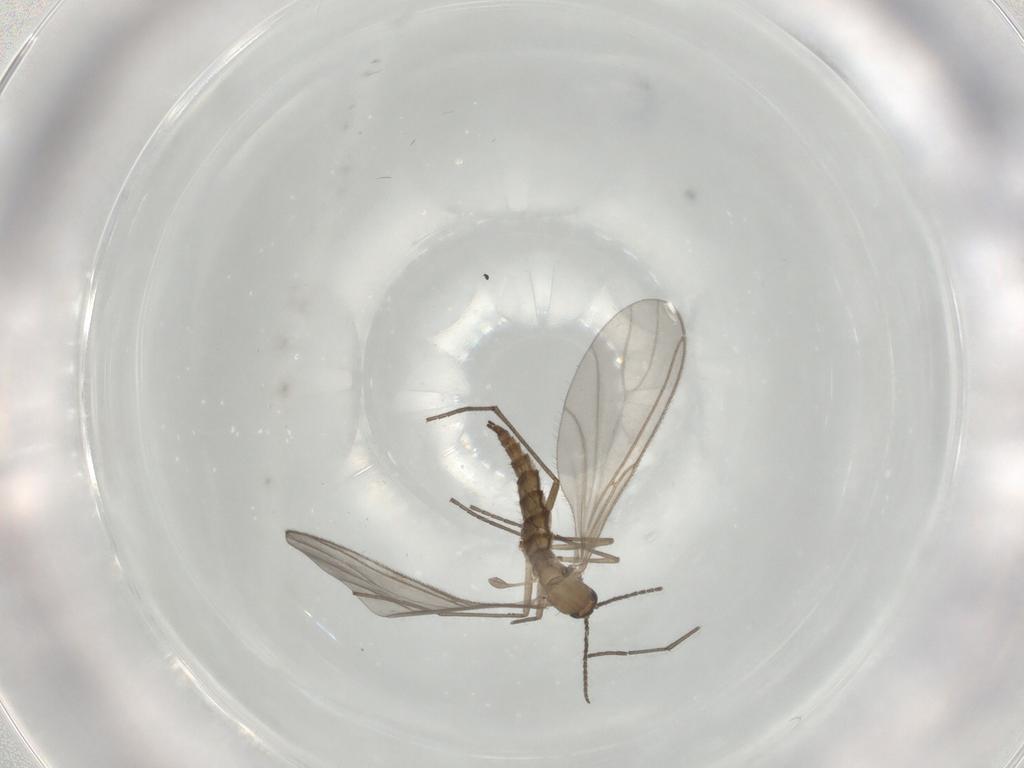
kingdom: Animalia
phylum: Arthropoda
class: Insecta
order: Diptera
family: Sciaridae
